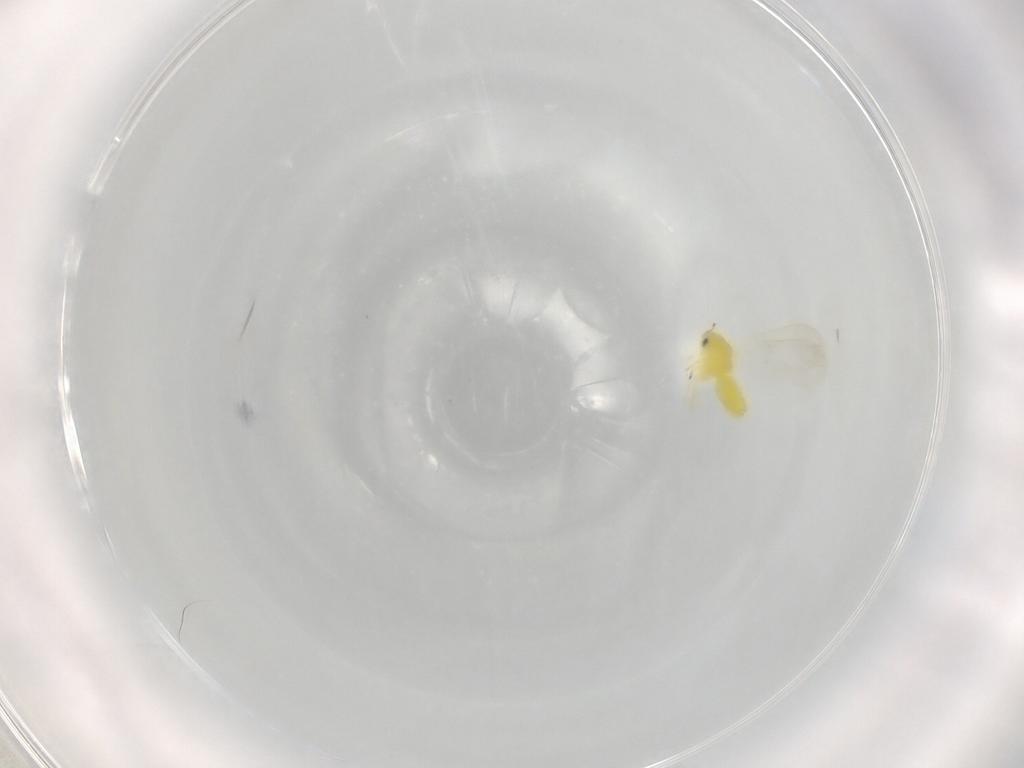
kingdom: Animalia
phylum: Arthropoda
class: Insecta
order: Hemiptera
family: Aleyrodidae
